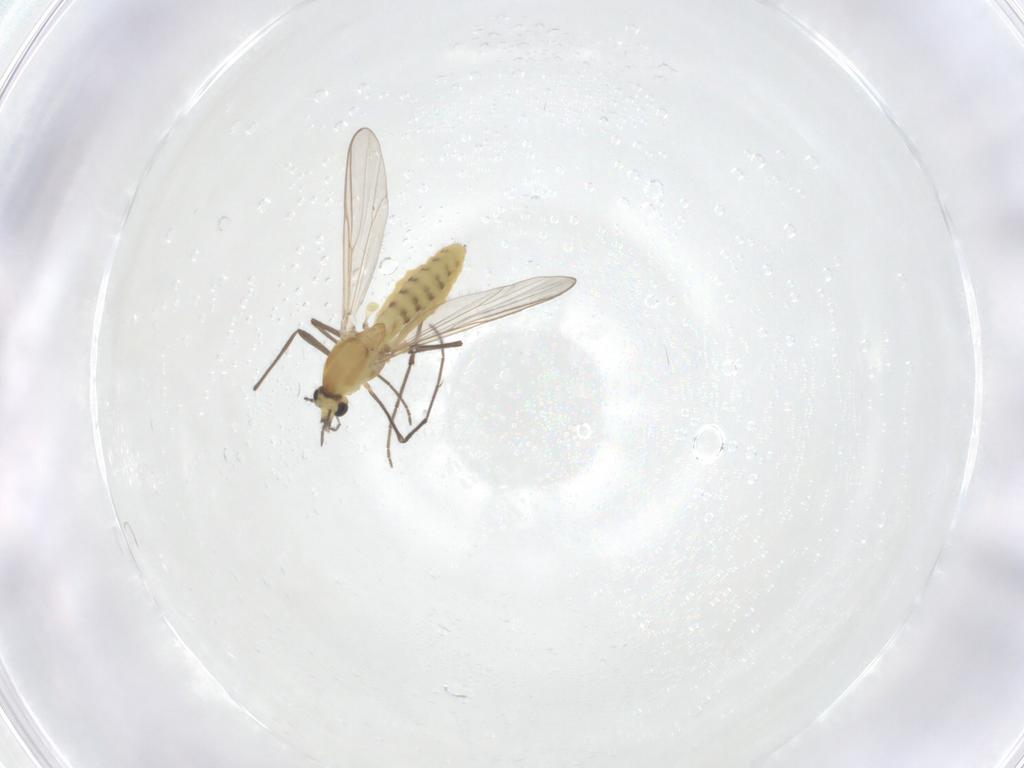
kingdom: Animalia
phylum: Arthropoda
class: Insecta
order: Diptera
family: Chironomidae
